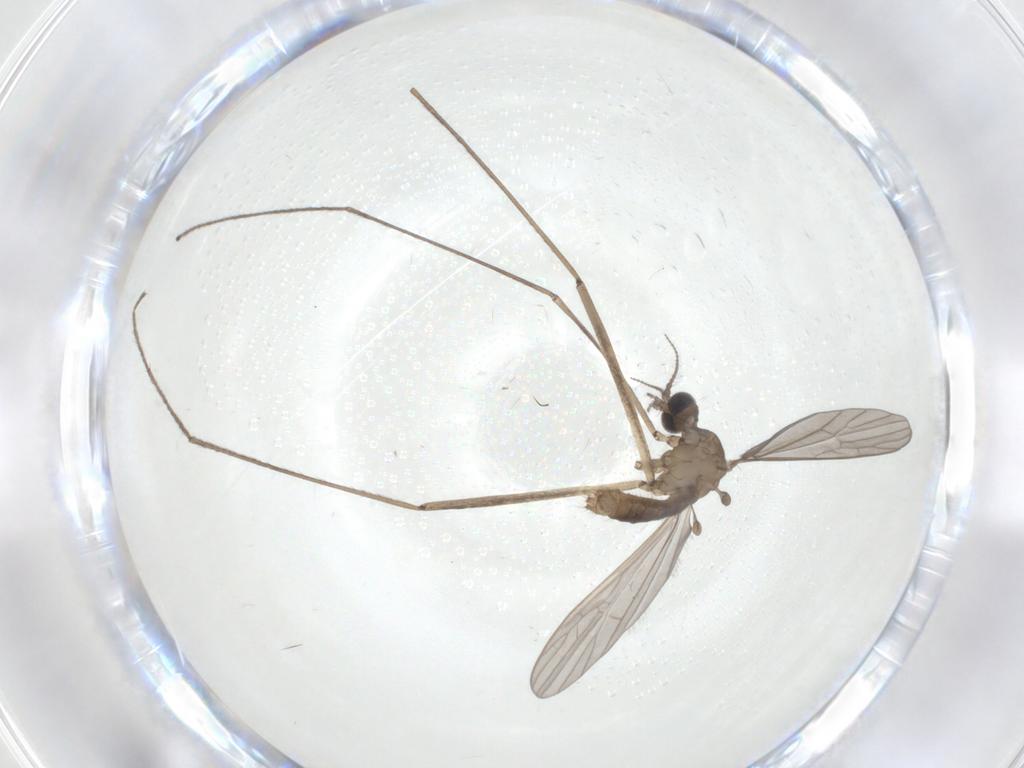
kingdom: Animalia
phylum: Arthropoda
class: Insecta
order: Diptera
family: Limoniidae
